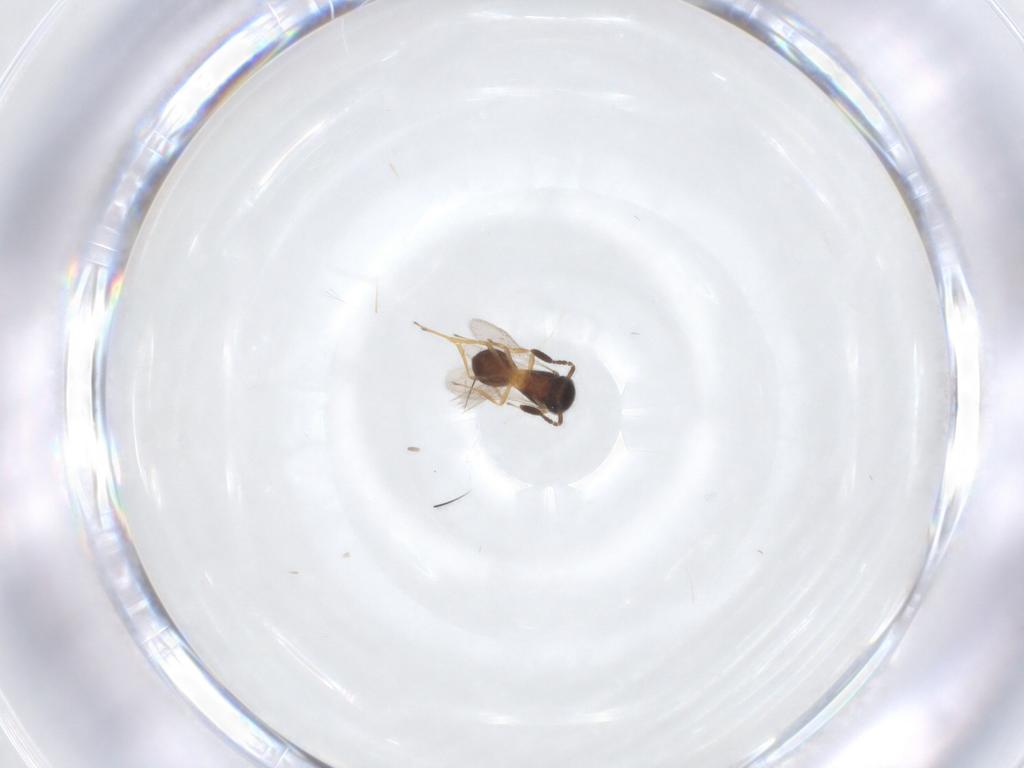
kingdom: Animalia
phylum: Arthropoda
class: Insecta
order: Hymenoptera
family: Scelionidae
